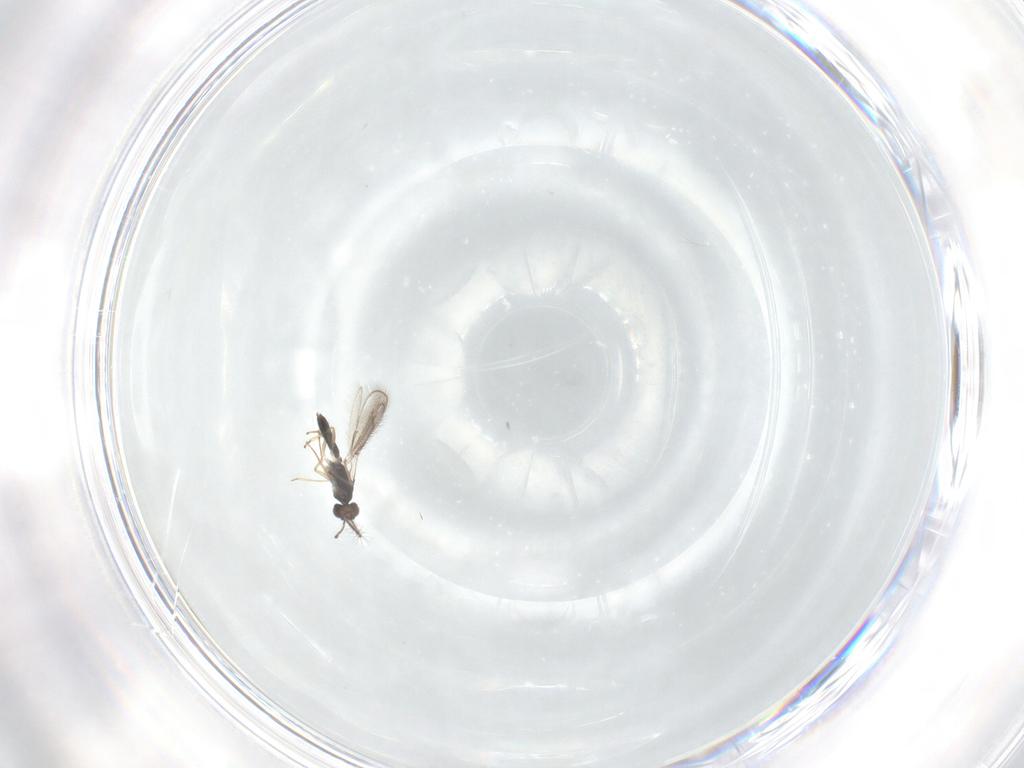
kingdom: Animalia
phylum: Arthropoda
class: Insecta
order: Hymenoptera
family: Pteromalidae
